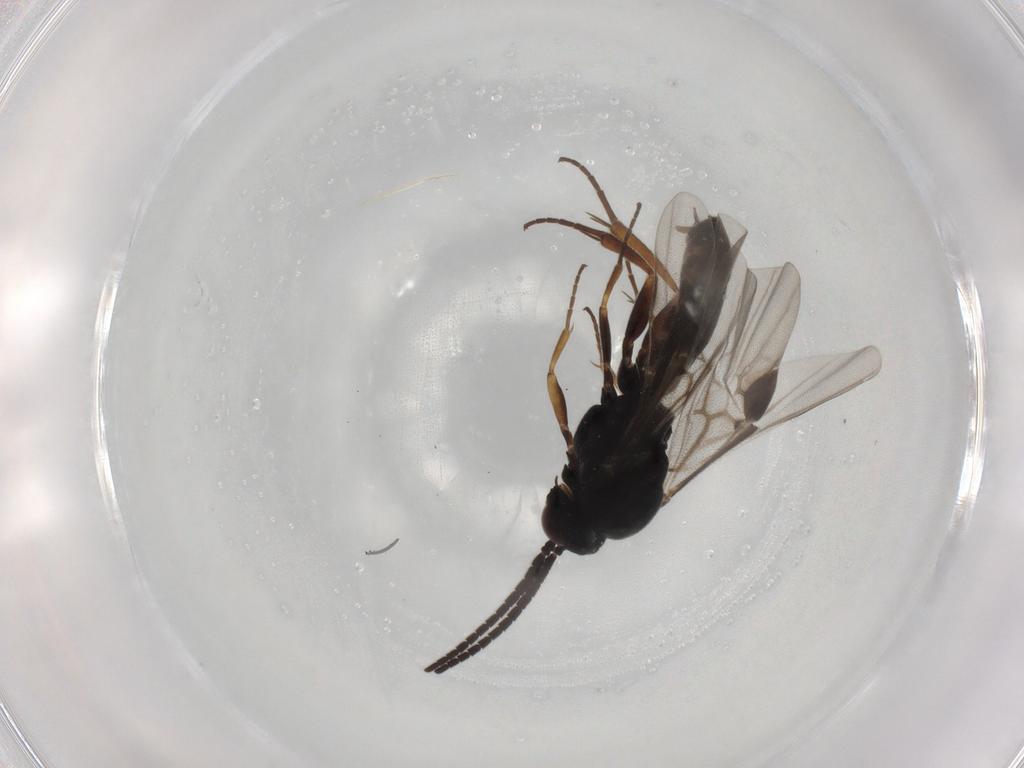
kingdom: Animalia
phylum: Arthropoda
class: Insecta
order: Hymenoptera
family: Braconidae
